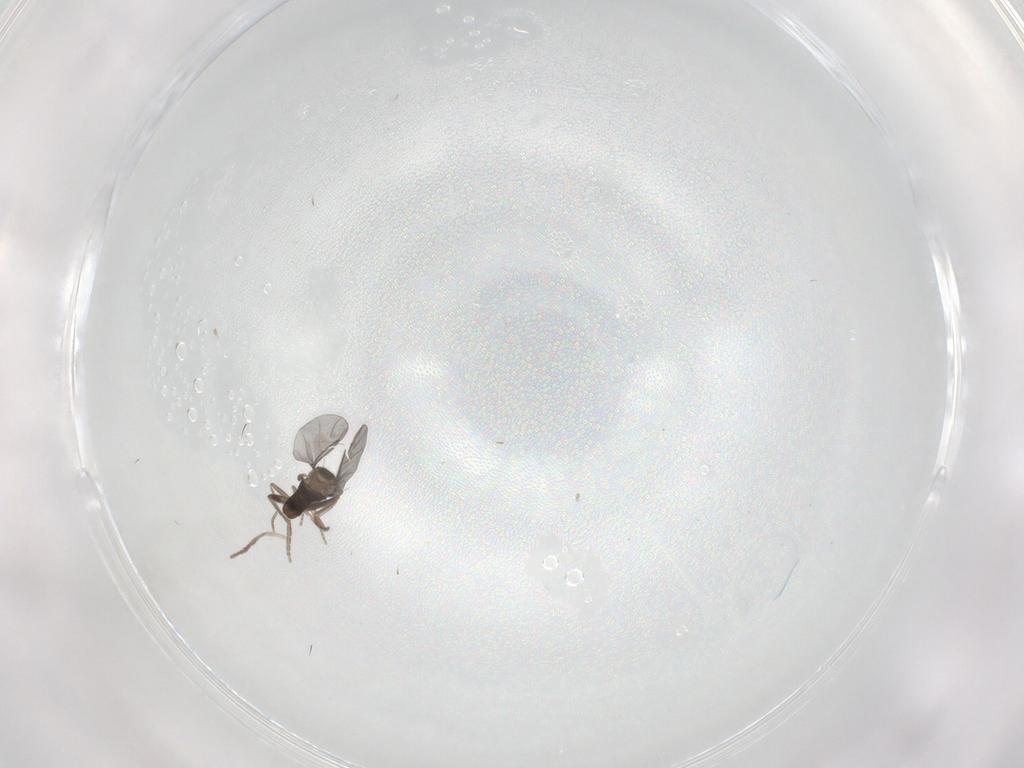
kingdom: Animalia
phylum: Arthropoda
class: Insecta
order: Diptera
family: Psychodidae
